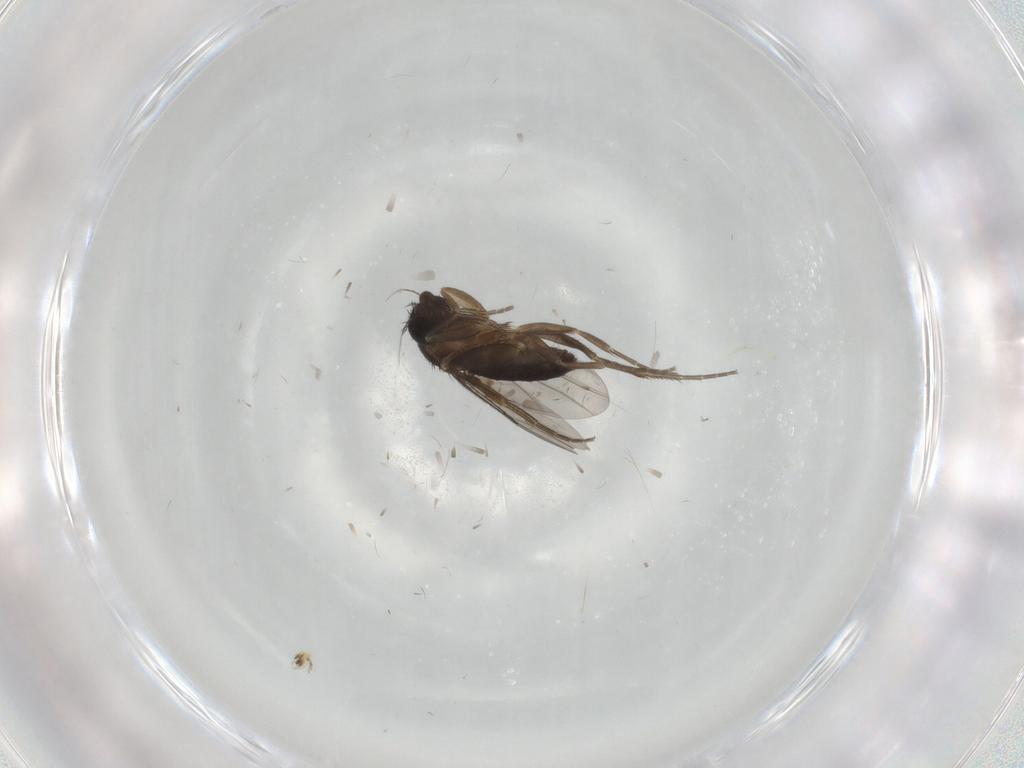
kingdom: Animalia
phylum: Arthropoda
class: Insecta
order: Diptera
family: Phoridae
